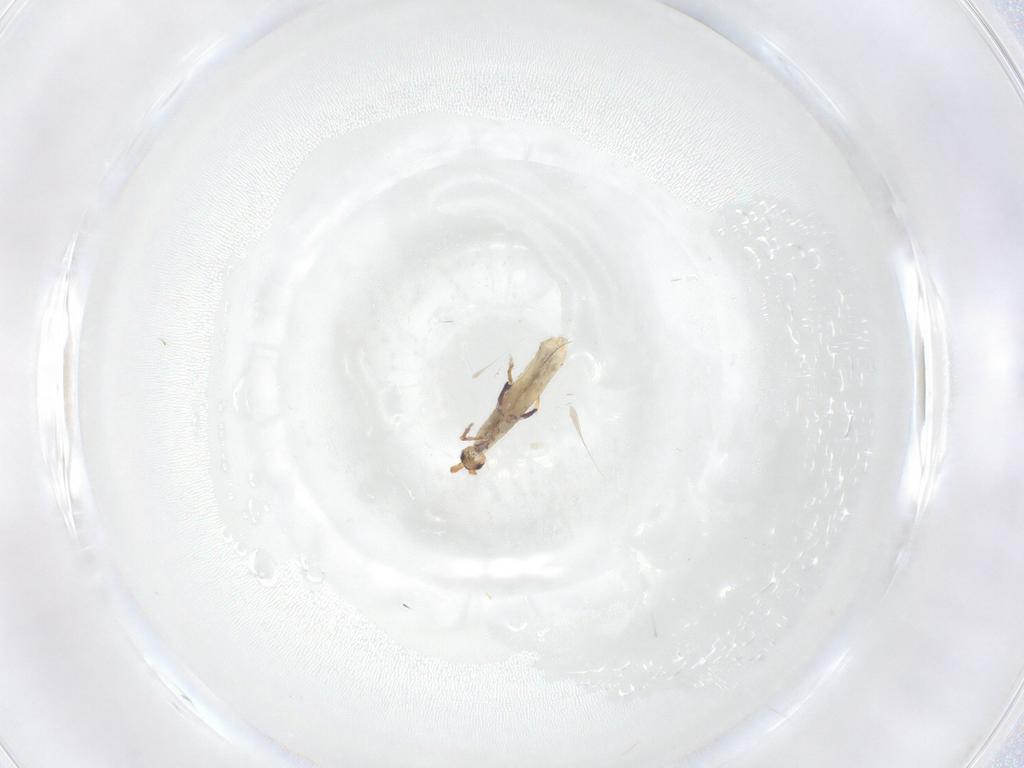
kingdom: Animalia
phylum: Arthropoda
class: Collembola
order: Entomobryomorpha
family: Entomobryidae
